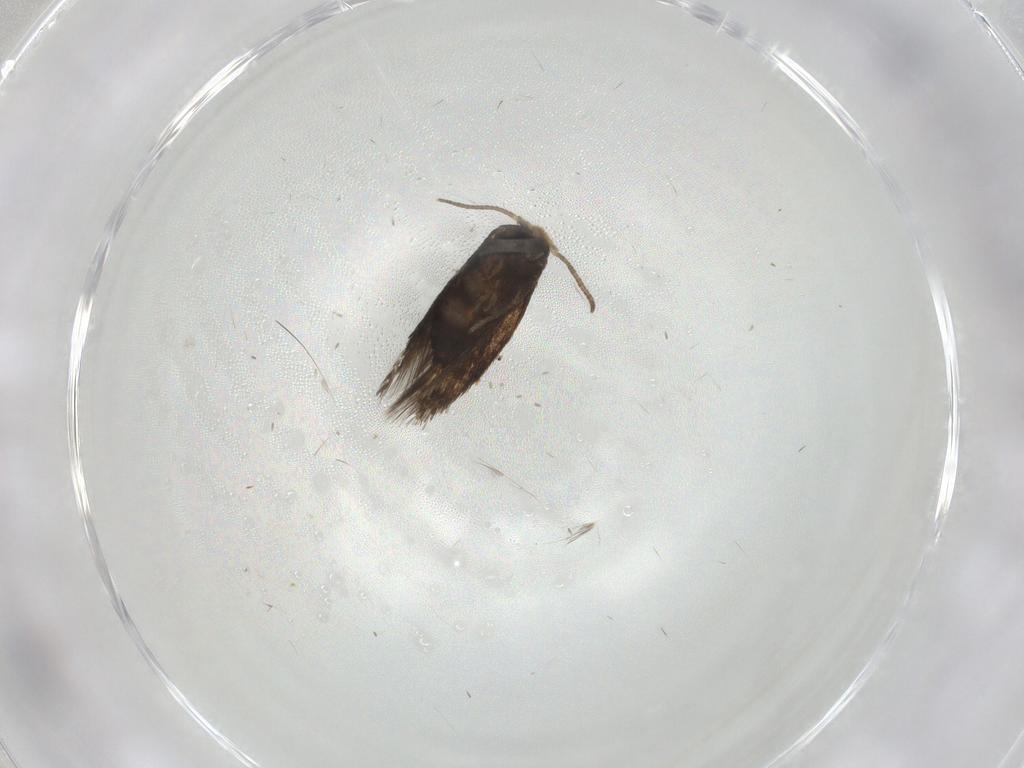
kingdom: Animalia
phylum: Arthropoda
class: Insecta
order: Lepidoptera
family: Nepticulidae
